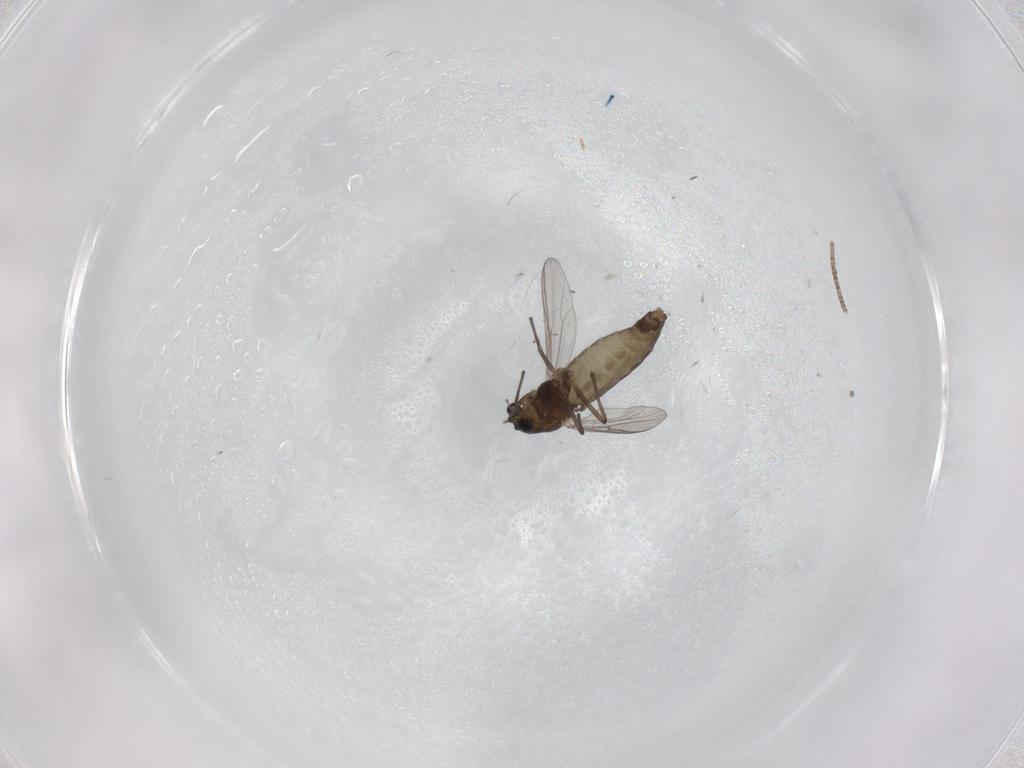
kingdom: Animalia
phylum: Arthropoda
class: Insecta
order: Diptera
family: Chironomidae
